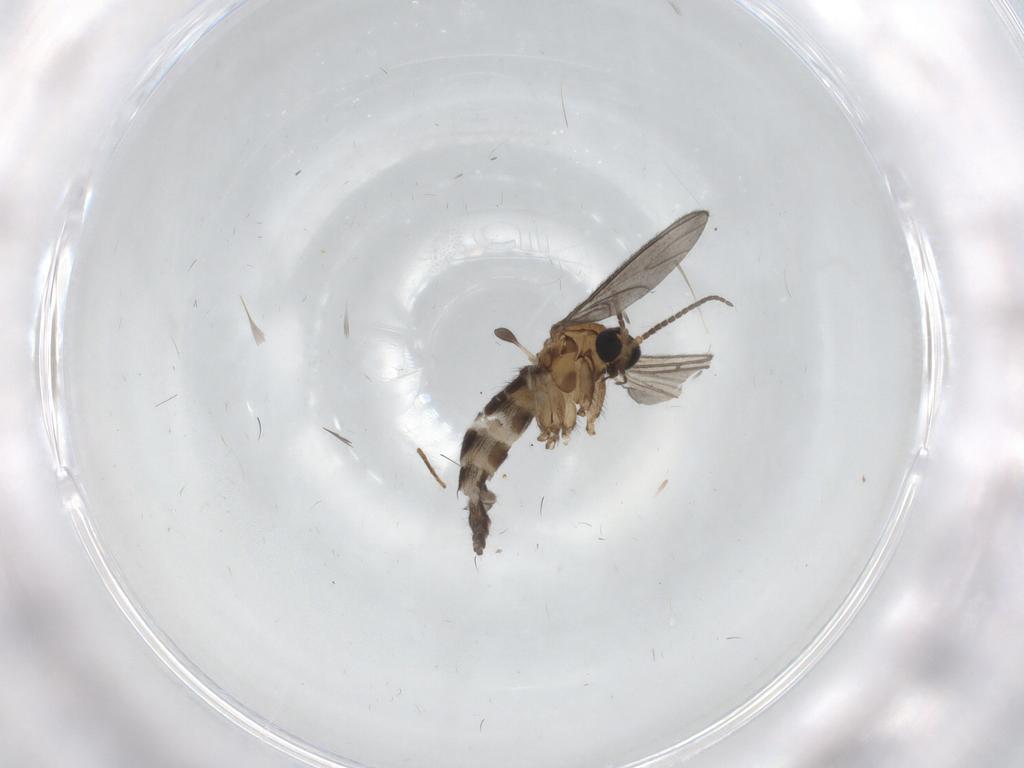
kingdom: Animalia
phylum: Arthropoda
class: Insecta
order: Diptera
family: Sciaridae
